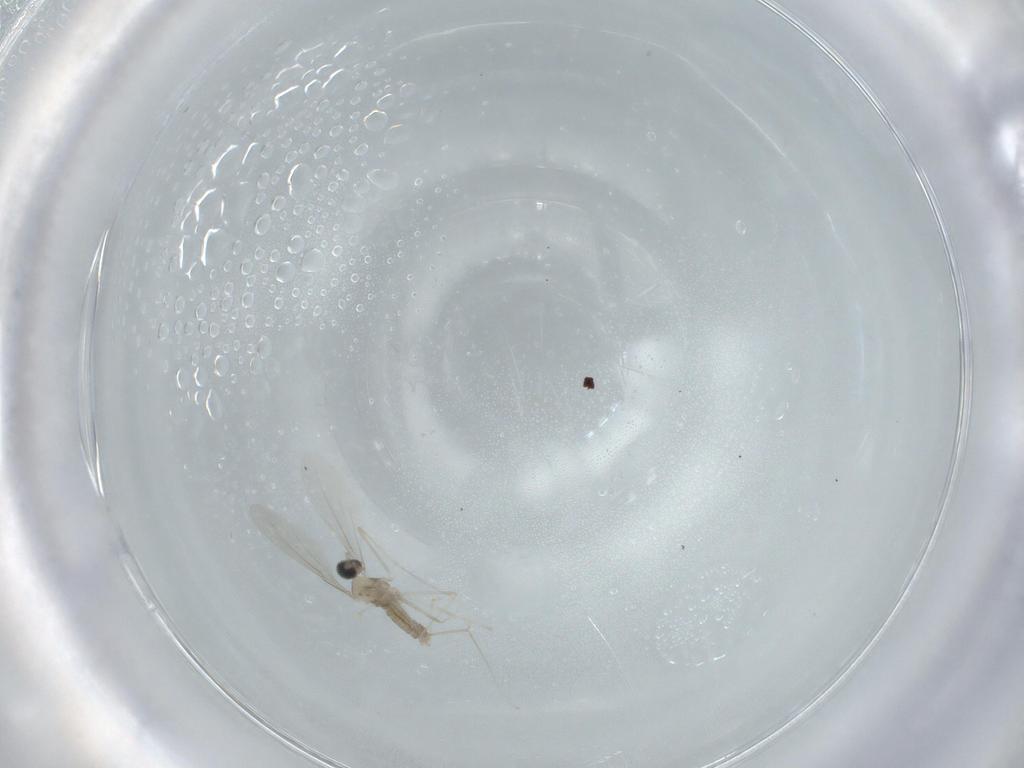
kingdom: Animalia
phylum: Arthropoda
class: Insecta
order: Diptera
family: Cecidomyiidae
